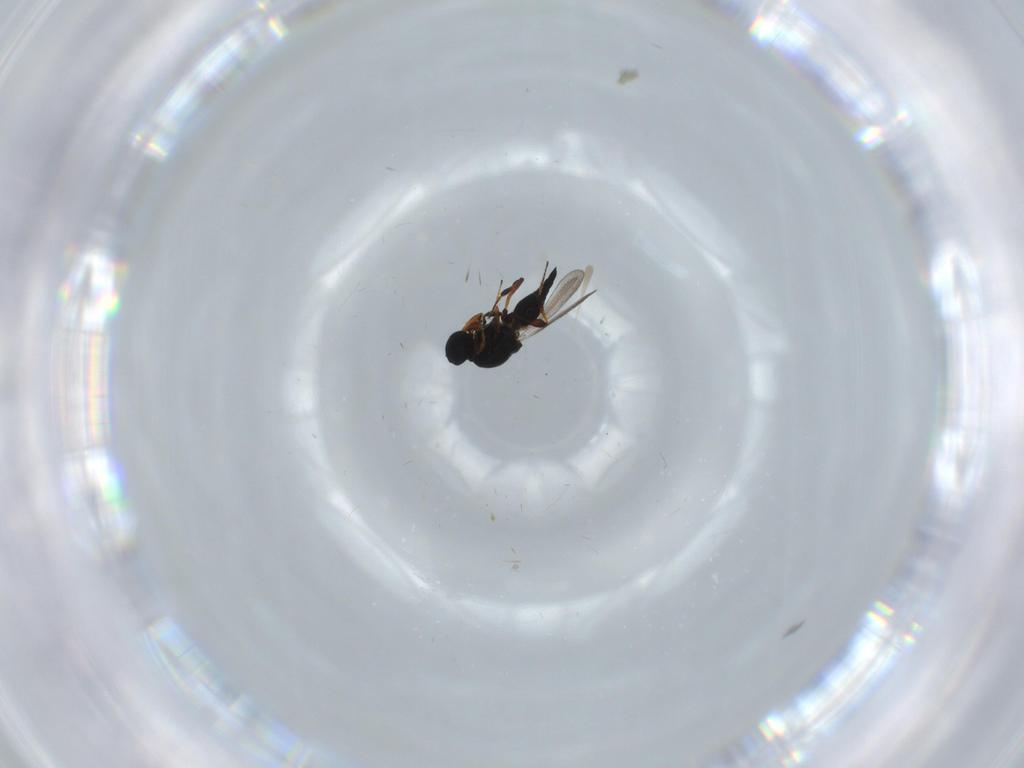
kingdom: Animalia
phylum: Arthropoda
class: Insecta
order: Hymenoptera
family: Platygastridae
